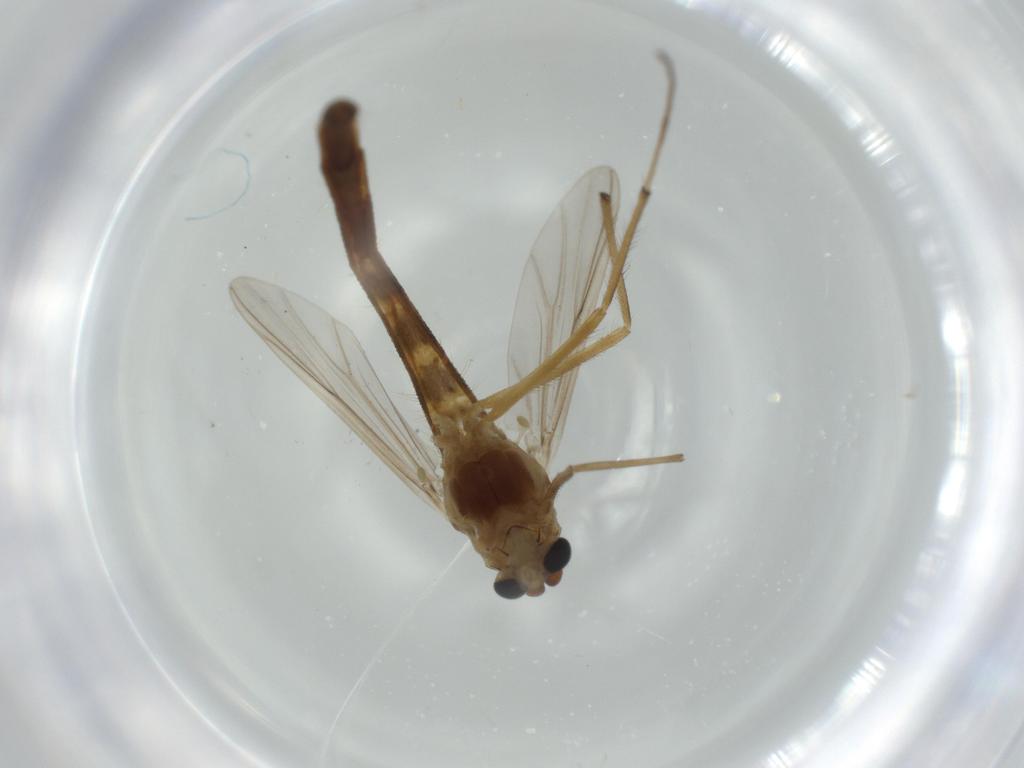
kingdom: Animalia
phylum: Arthropoda
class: Insecta
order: Diptera
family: Chironomidae
